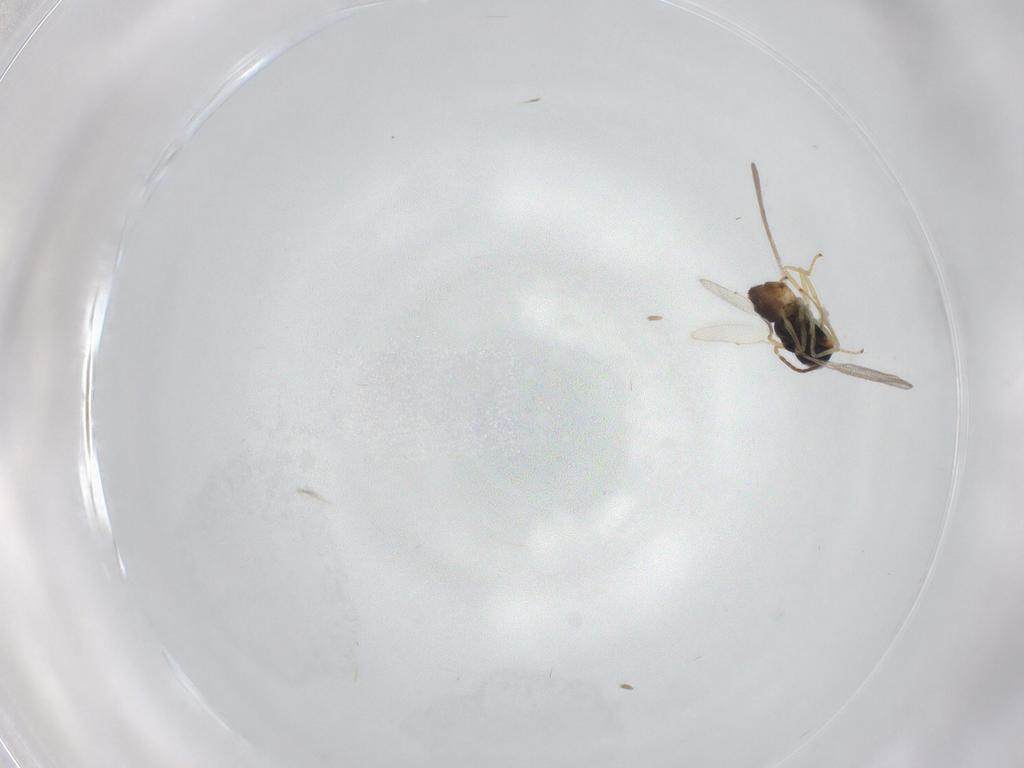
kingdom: Animalia
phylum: Arthropoda
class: Insecta
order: Hymenoptera
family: Eulophidae
